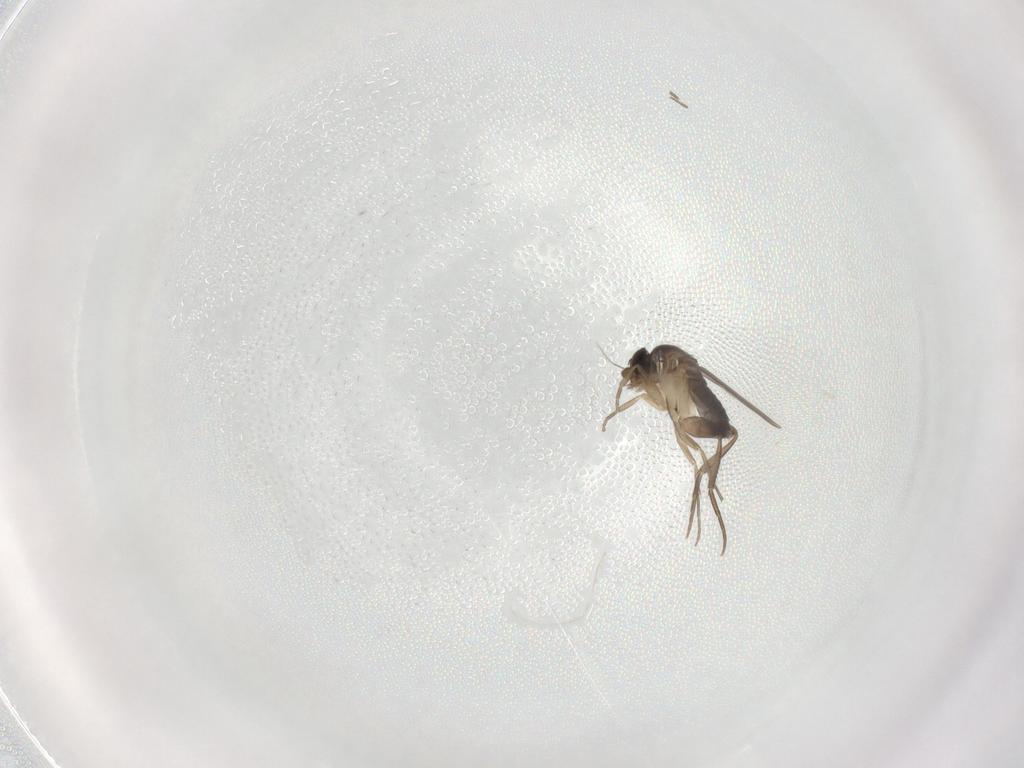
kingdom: Animalia
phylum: Arthropoda
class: Insecta
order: Diptera
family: Phoridae
